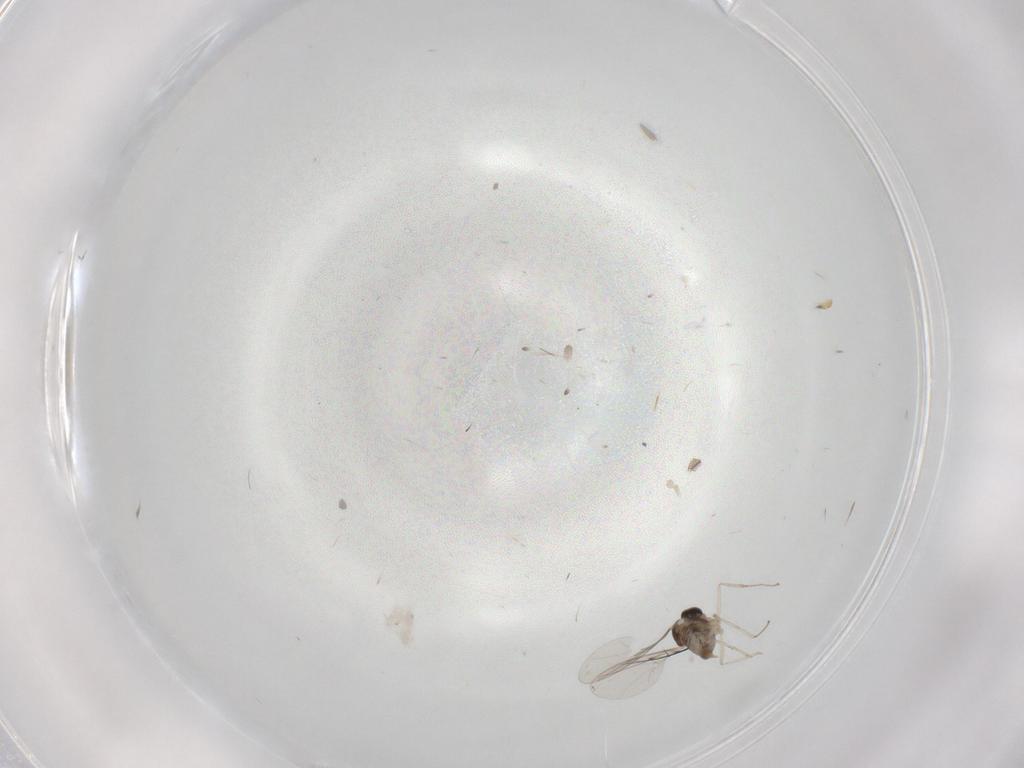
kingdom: Animalia
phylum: Arthropoda
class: Insecta
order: Diptera
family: Cecidomyiidae
